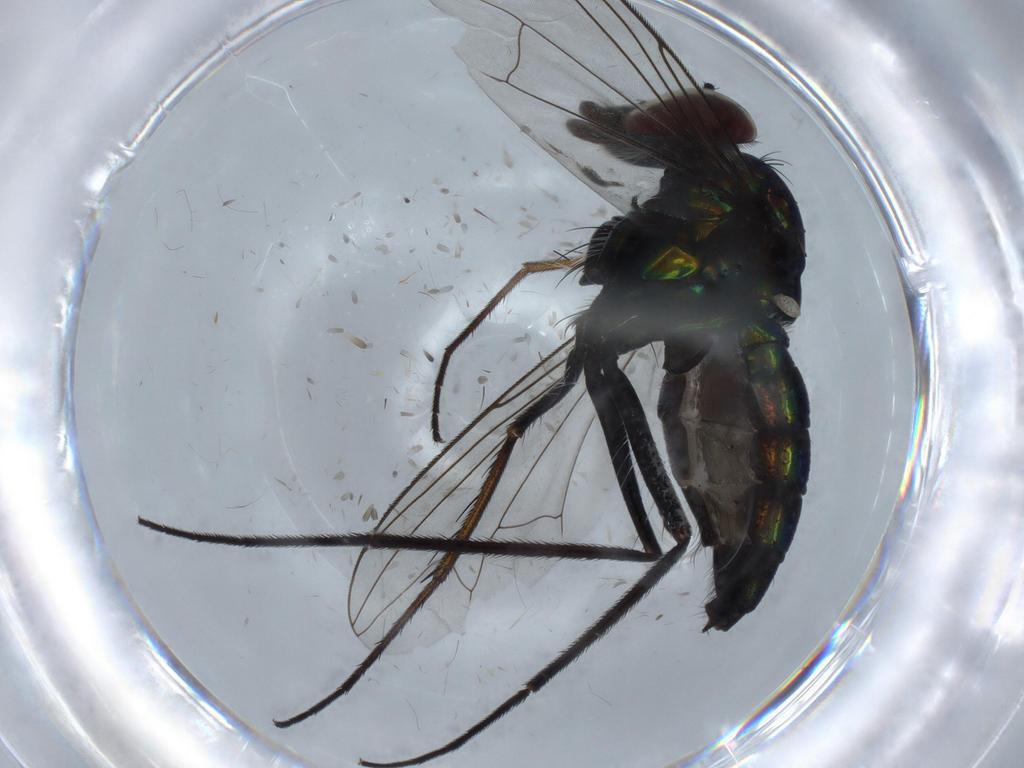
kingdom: Animalia
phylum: Arthropoda
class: Insecta
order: Diptera
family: Dolichopodidae
